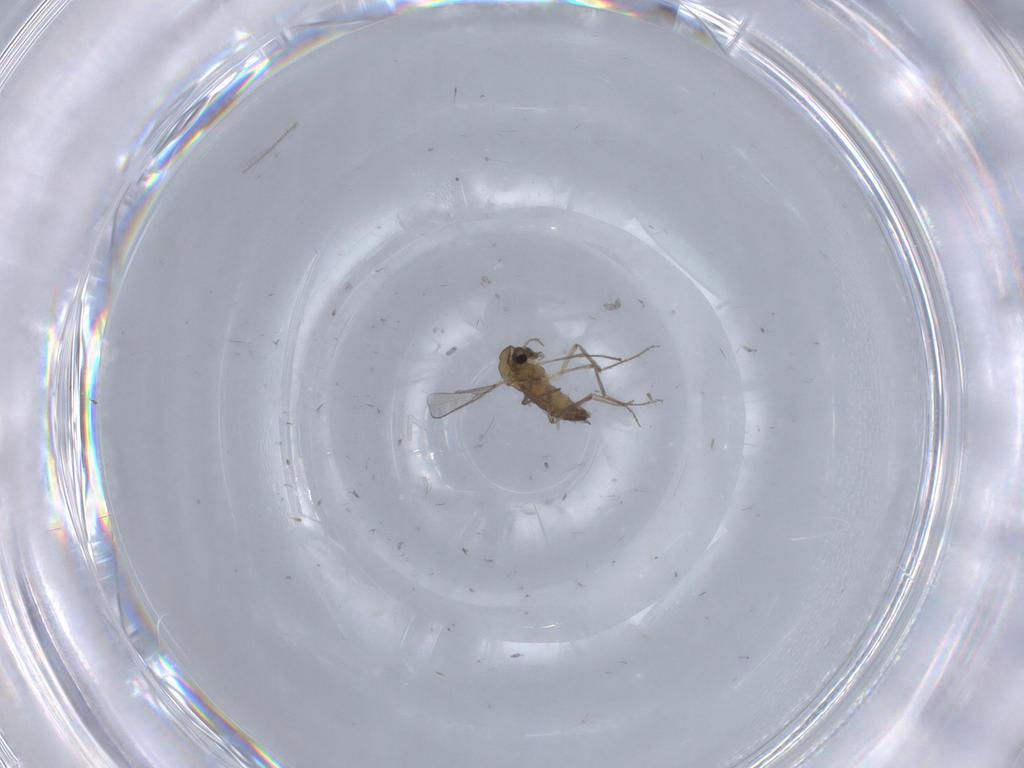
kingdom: Animalia
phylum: Arthropoda
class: Insecta
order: Diptera
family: Chironomidae
